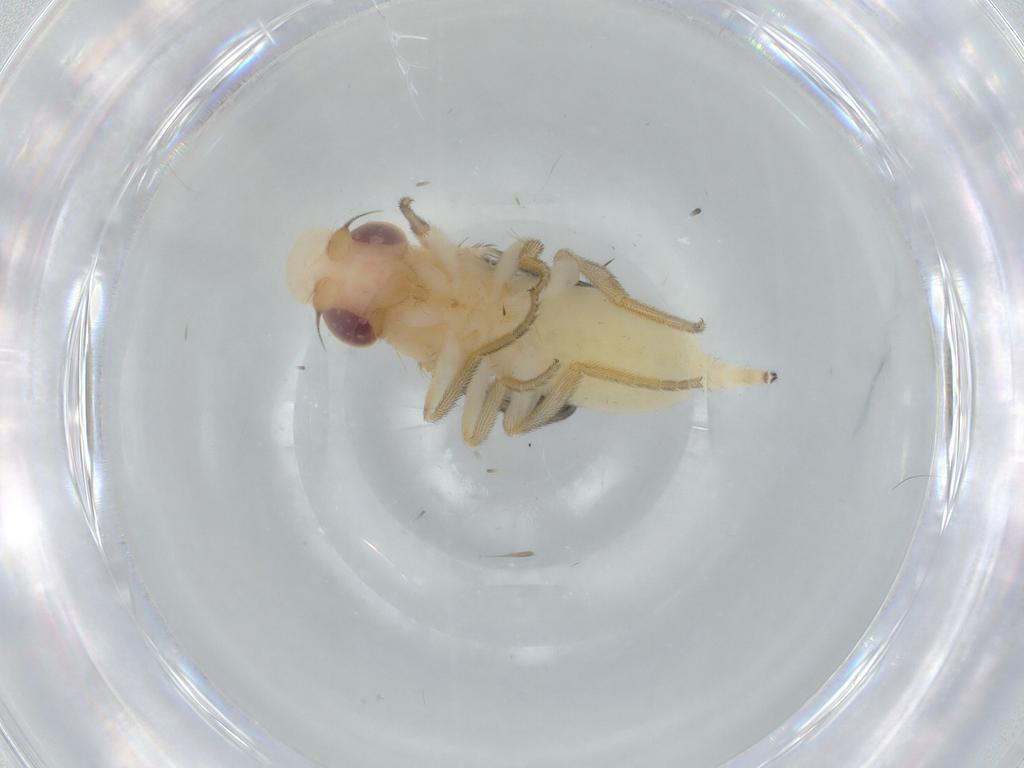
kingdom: Animalia
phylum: Arthropoda
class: Insecta
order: Diptera
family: Chloropidae
